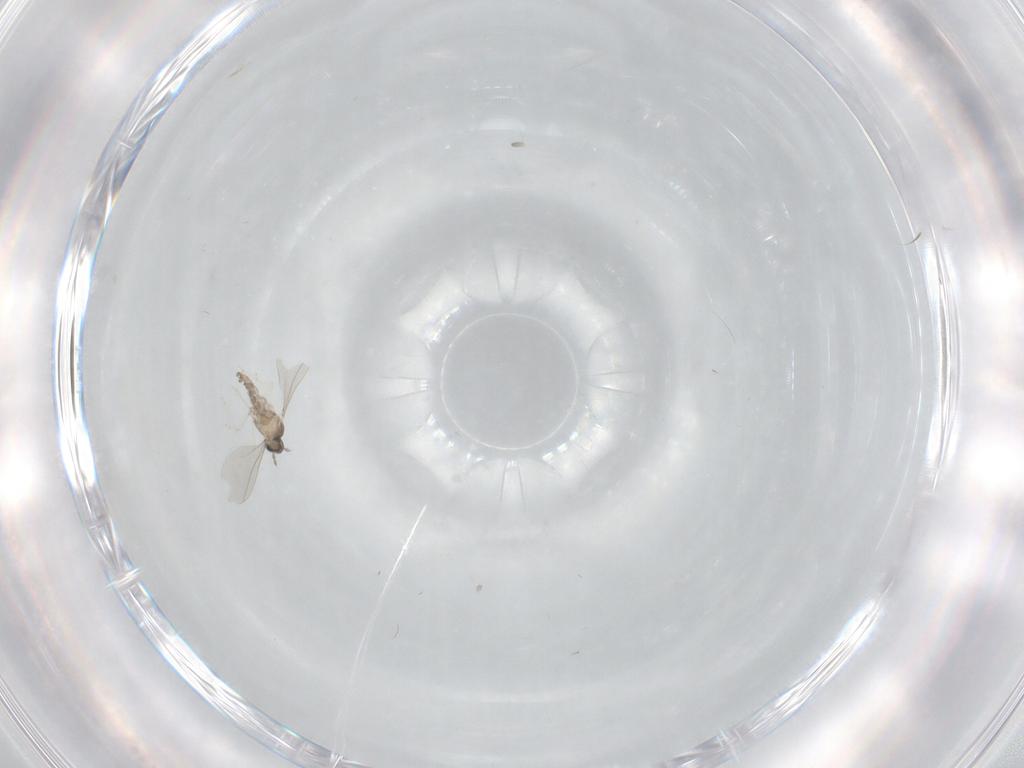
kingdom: Animalia
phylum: Arthropoda
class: Insecta
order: Diptera
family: Cecidomyiidae
